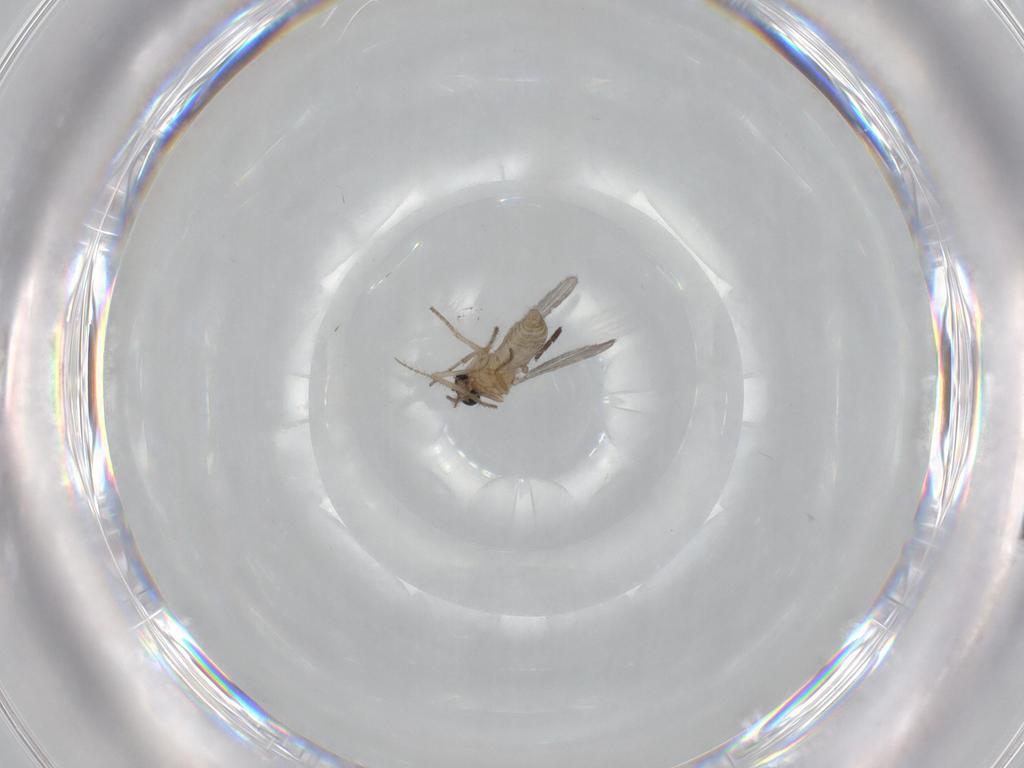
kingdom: Animalia
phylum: Arthropoda
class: Insecta
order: Diptera
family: Ceratopogonidae
